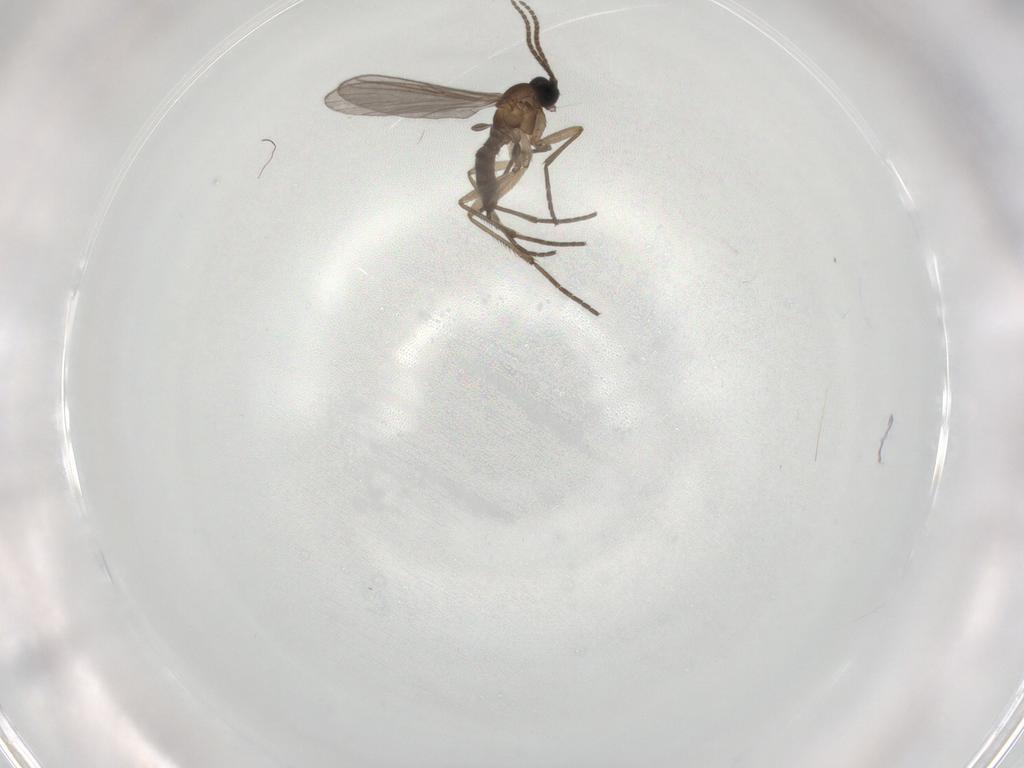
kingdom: Animalia
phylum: Arthropoda
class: Insecta
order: Diptera
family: Sciaridae
